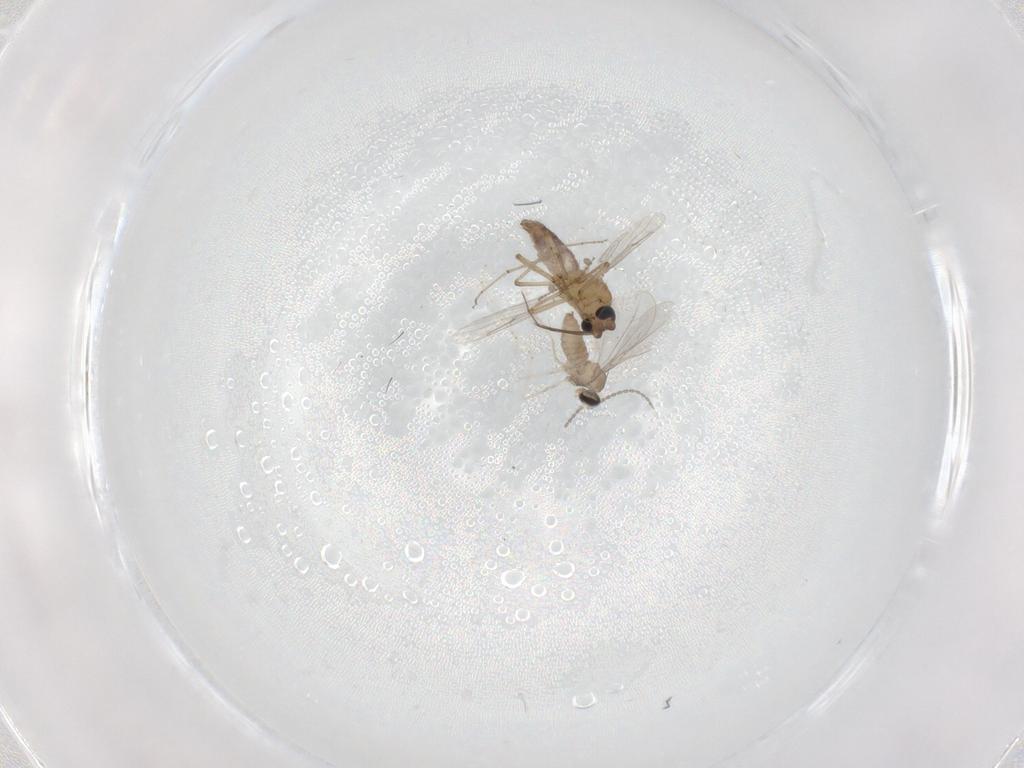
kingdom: Animalia
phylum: Arthropoda
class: Insecta
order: Diptera
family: Cecidomyiidae
